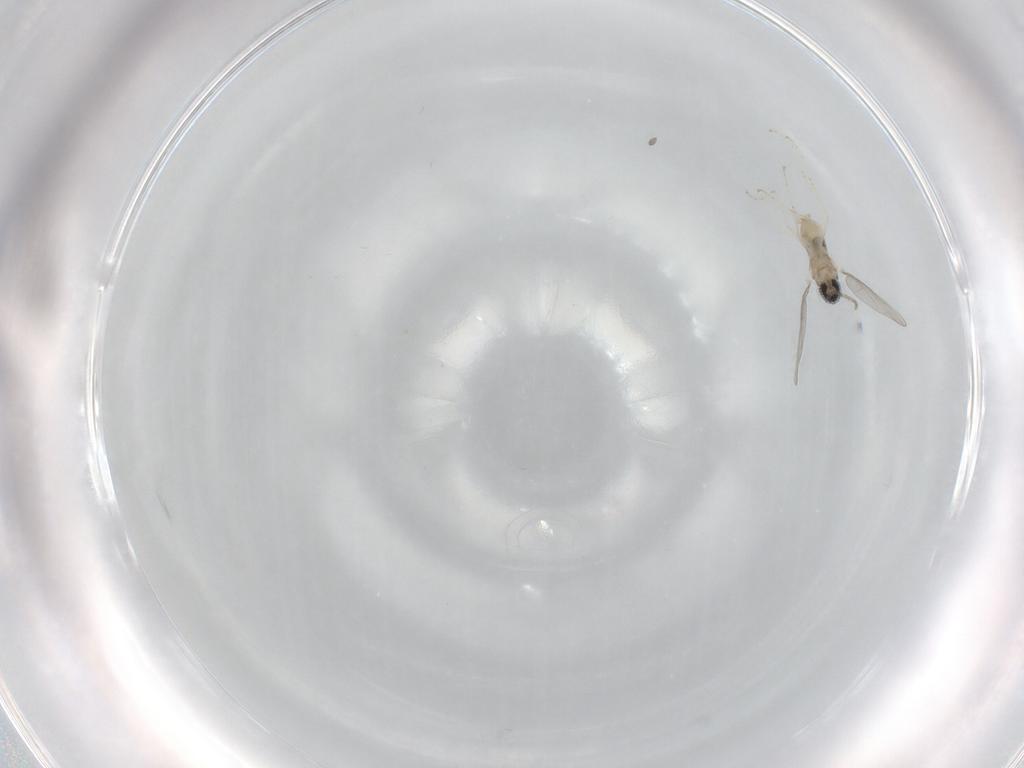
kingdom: Animalia
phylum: Arthropoda
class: Insecta
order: Diptera
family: Cecidomyiidae
